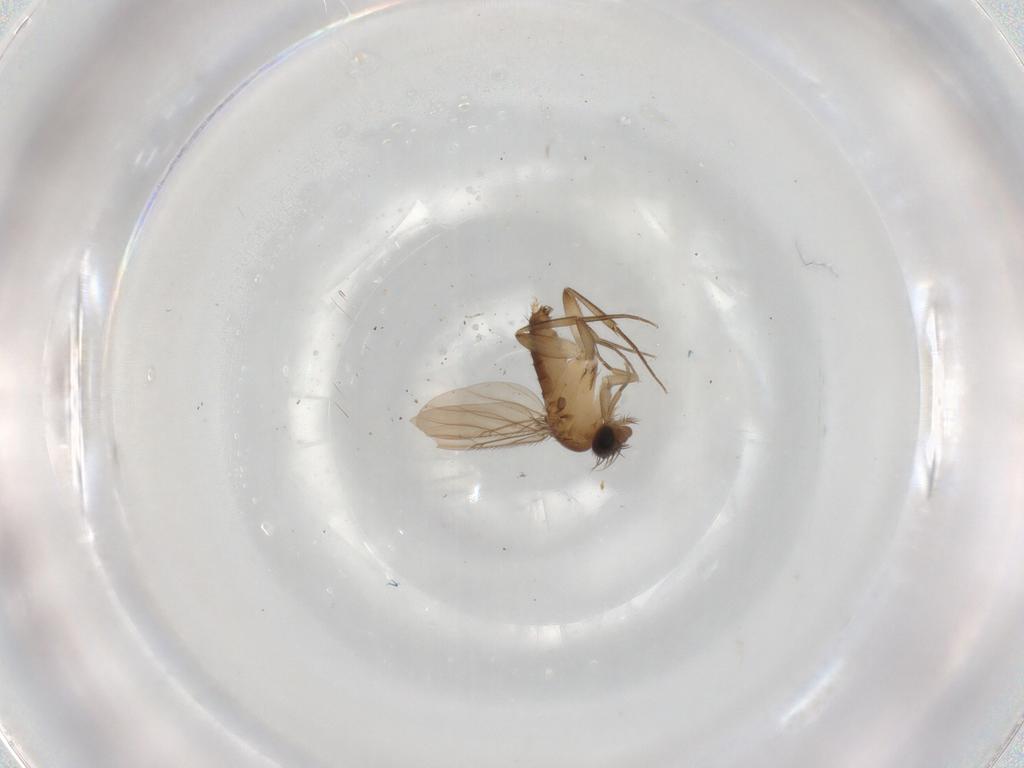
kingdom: Animalia
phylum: Arthropoda
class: Insecta
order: Diptera
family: Phoridae
